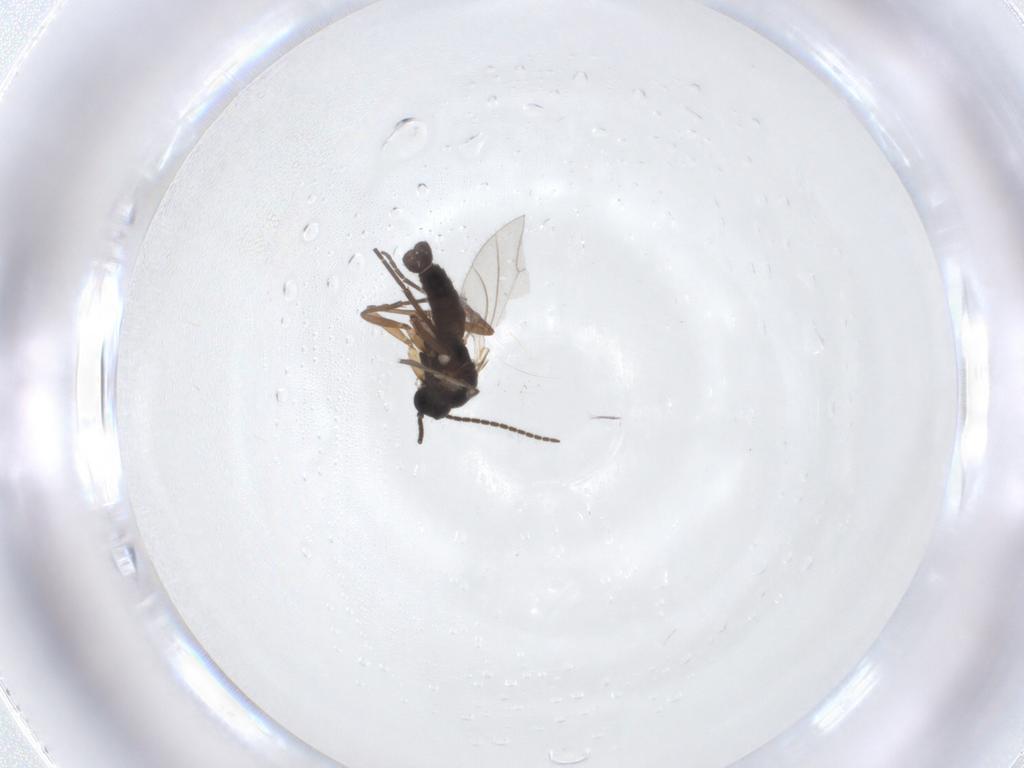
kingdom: Animalia
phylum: Arthropoda
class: Insecta
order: Diptera
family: Sciaridae
